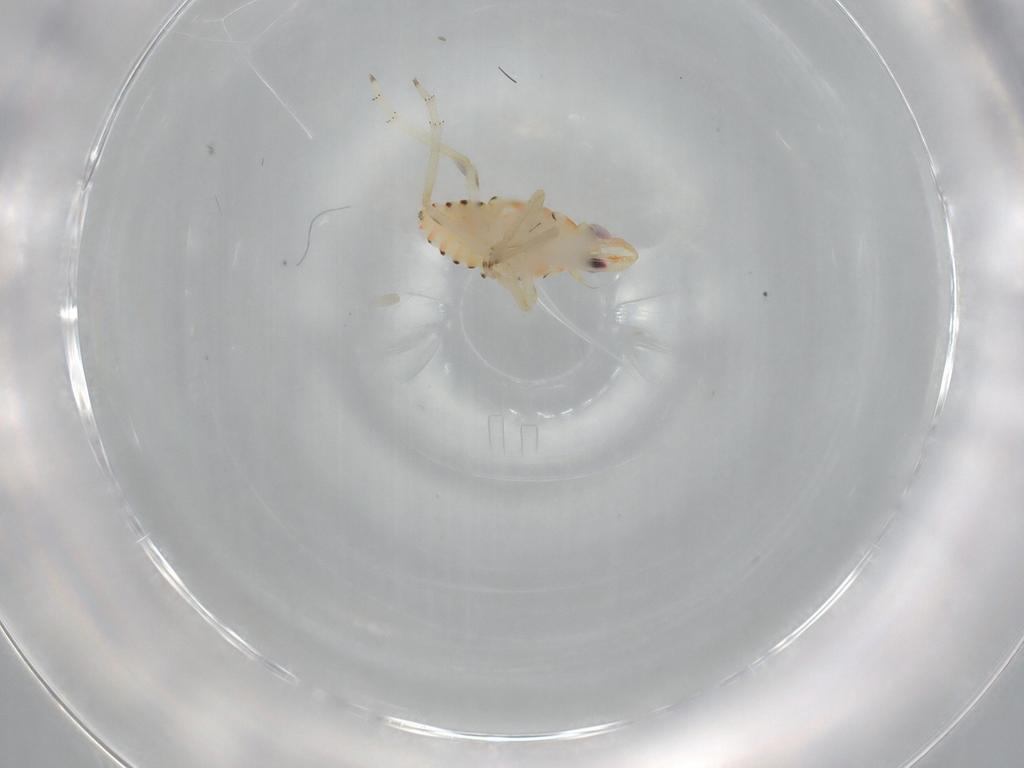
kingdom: Animalia
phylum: Arthropoda
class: Insecta
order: Hemiptera
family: Tropiduchidae
